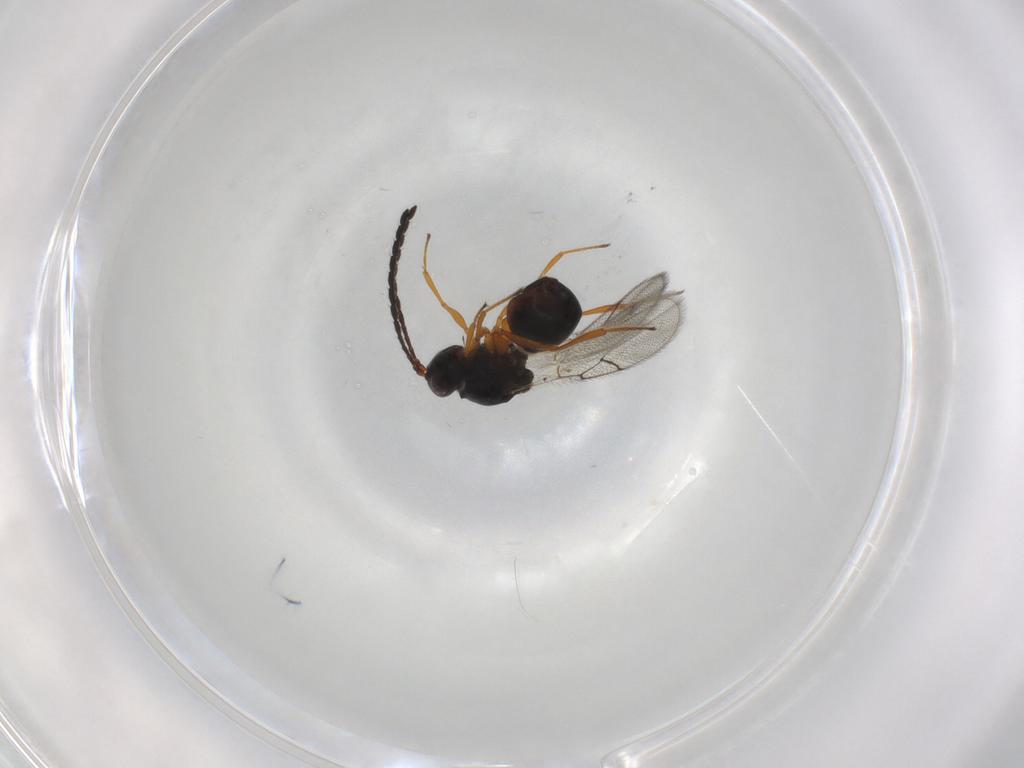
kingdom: Animalia
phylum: Arthropoda
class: Insecta
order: Hymenoptera
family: Figitidae
